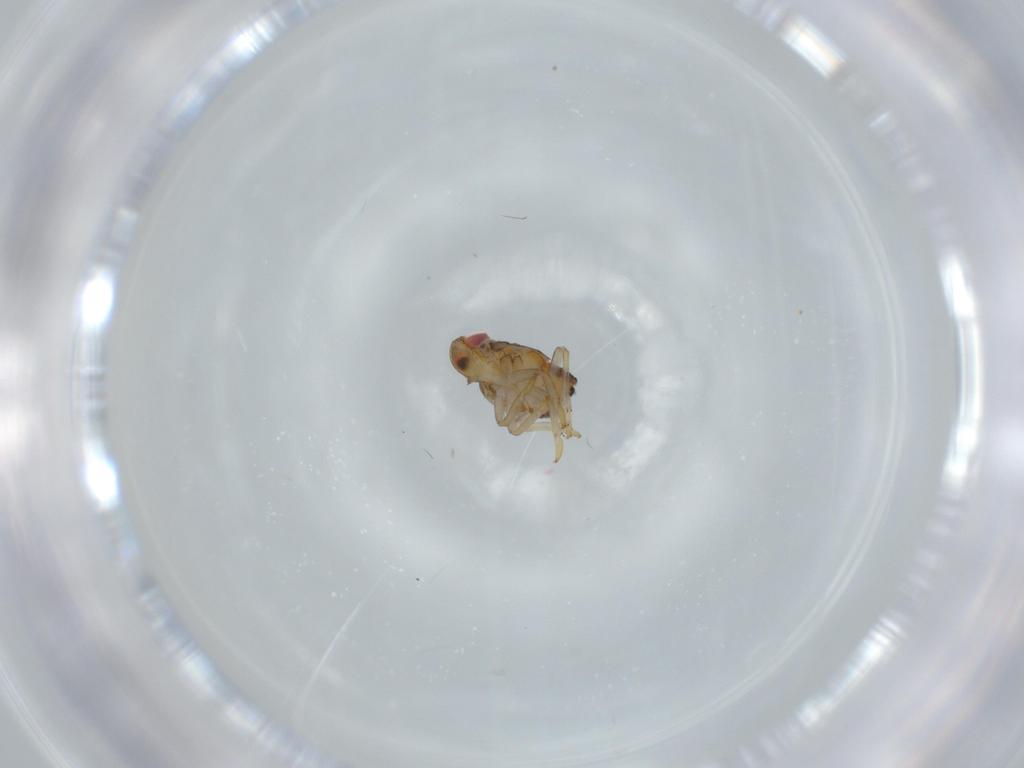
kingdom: Animalia
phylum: Arthropoda
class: Insecta
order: Hemiptera
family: Issidae
